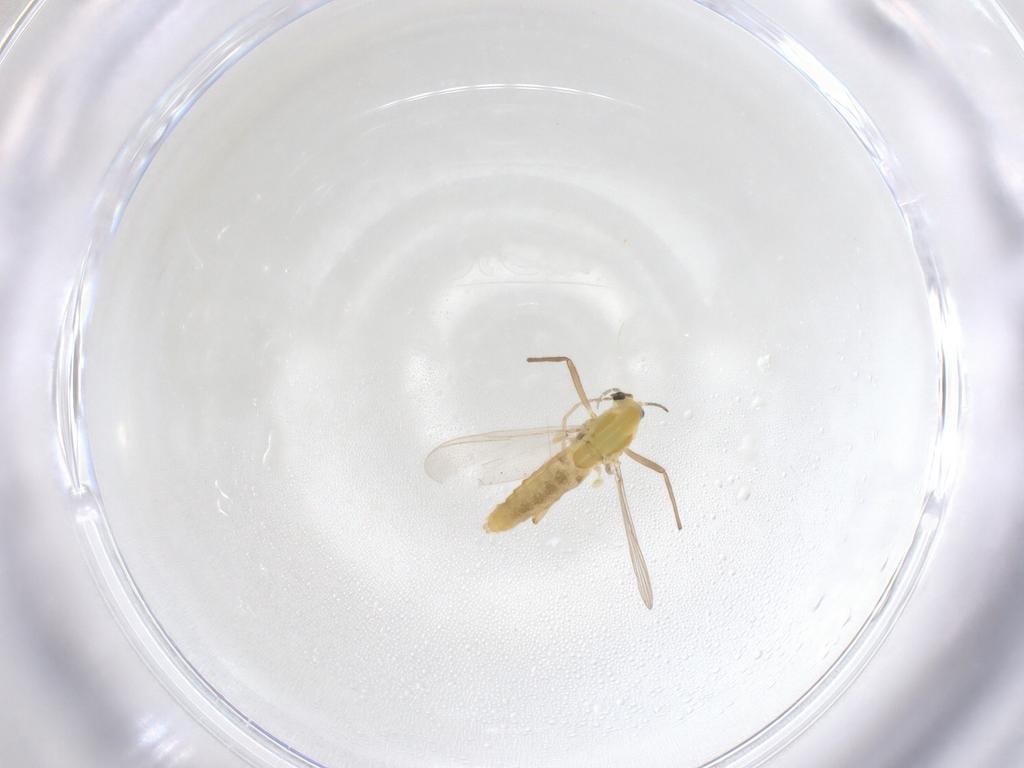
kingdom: Animalia
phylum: Arthropoda
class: Insecta
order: Diptera
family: Chironomidae
